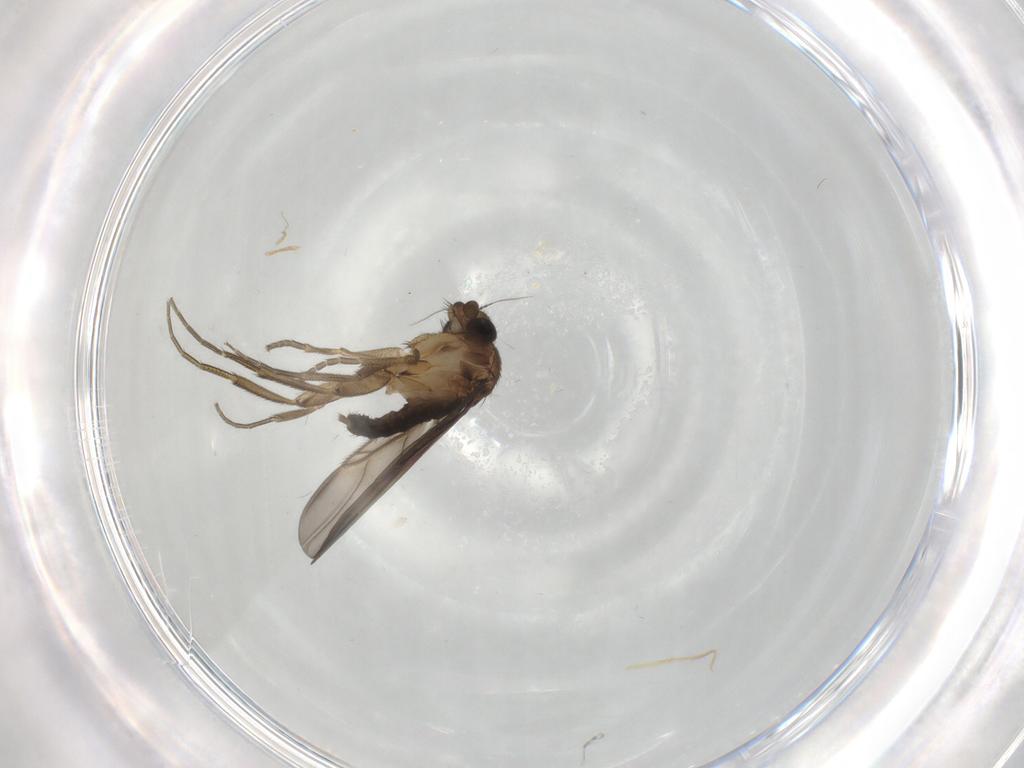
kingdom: Animalia
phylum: Arthropoda
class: Insecta
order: Diptera
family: Phoridae
